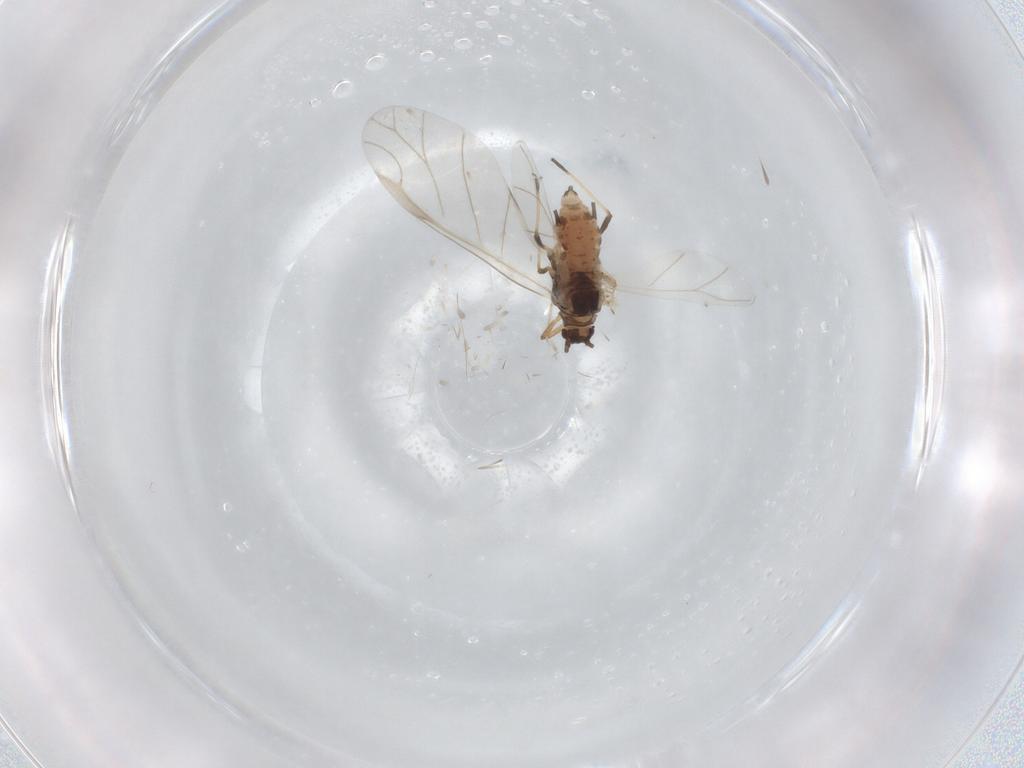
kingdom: Animalia
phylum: Arthropoda
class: Insecta
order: Hemiptera
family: Aphididae
